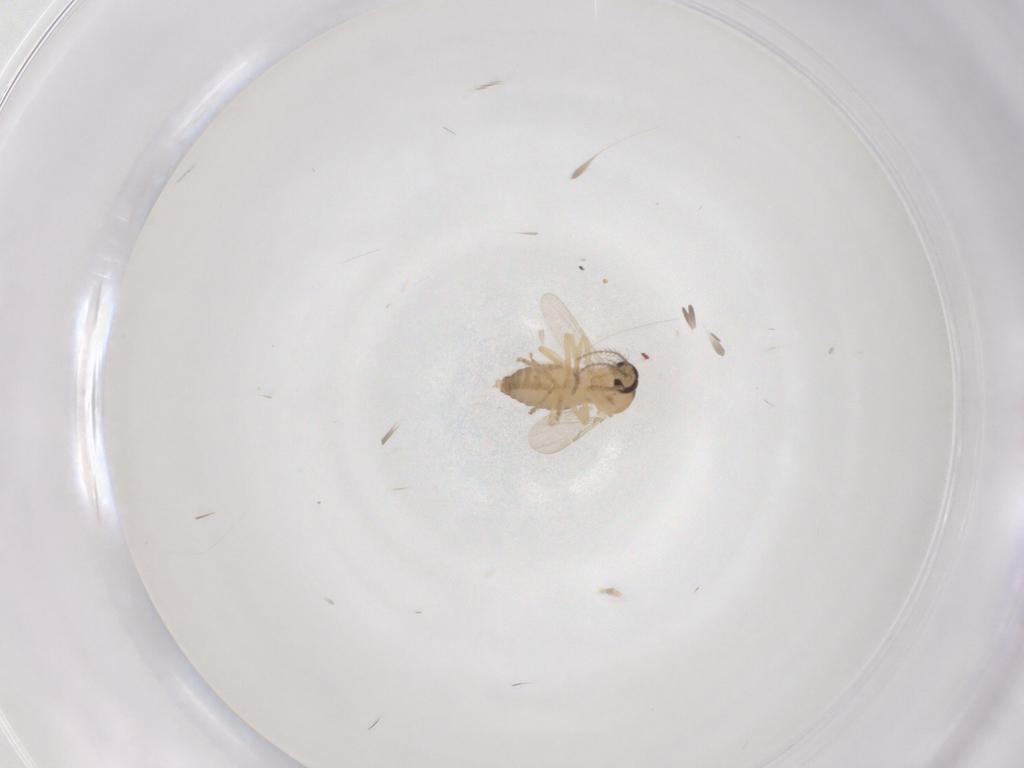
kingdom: Animalia
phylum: Arthropoda
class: Insecta
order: Diptera
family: Ceratopogonidae
